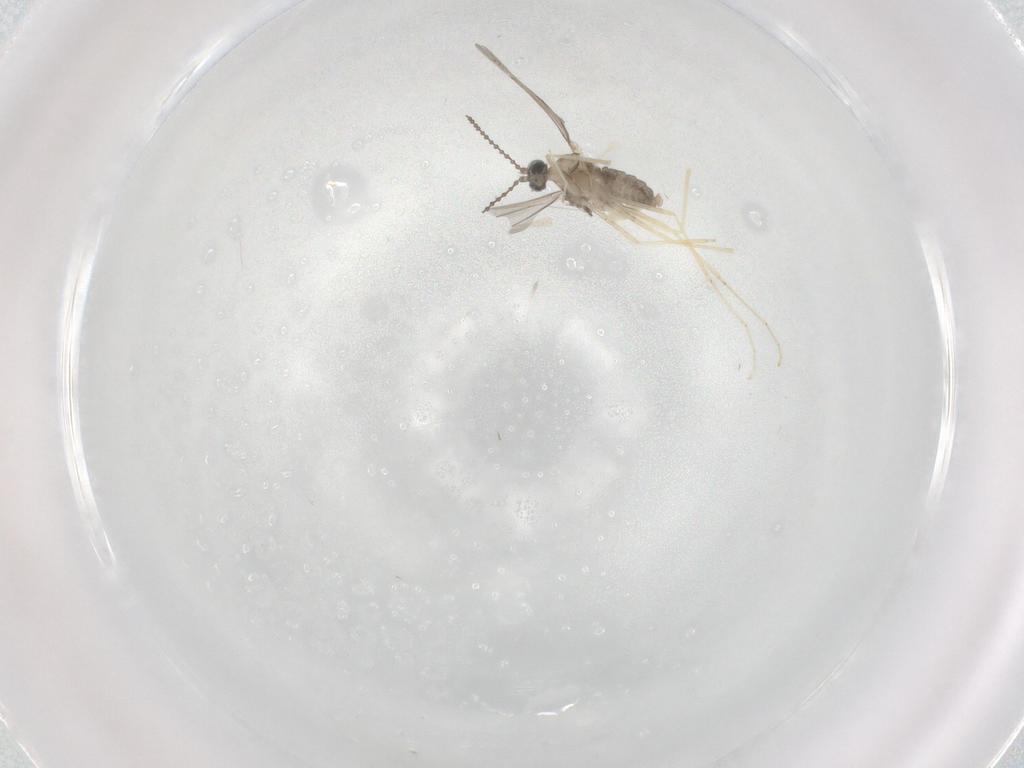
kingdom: Animalia
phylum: Arthropoda
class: Insecta
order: Diptera
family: Cecidomyiidae
